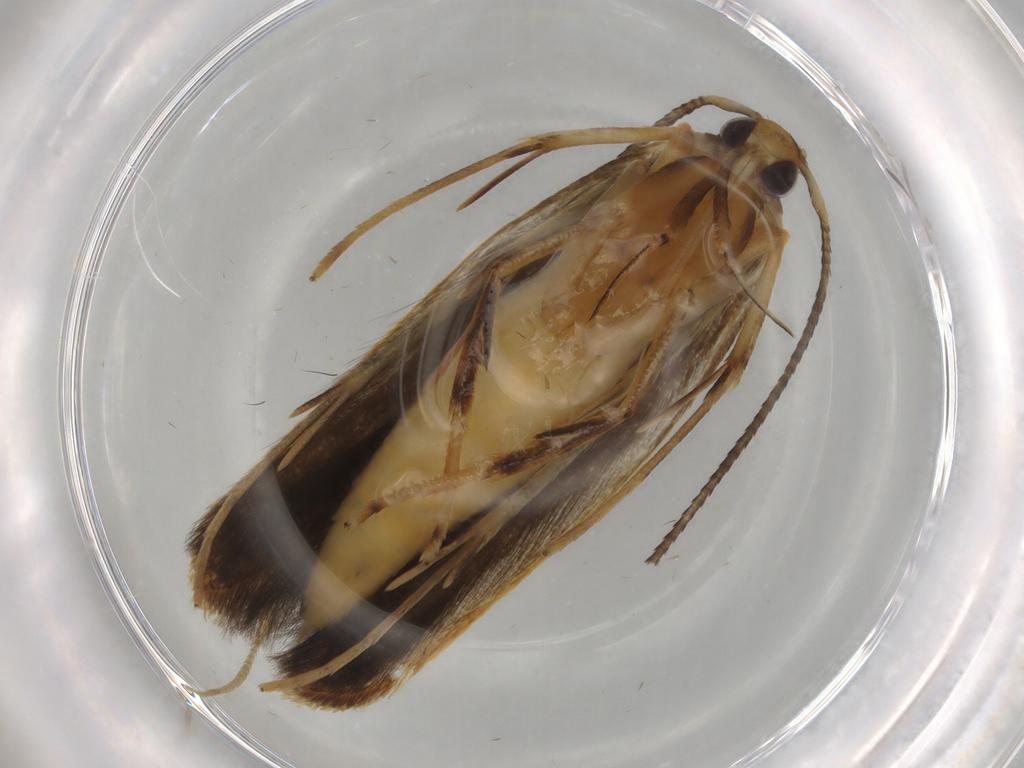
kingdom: Animalia
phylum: Arthropoda
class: Insecta
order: Lepidoptera
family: Pterolonchidae
